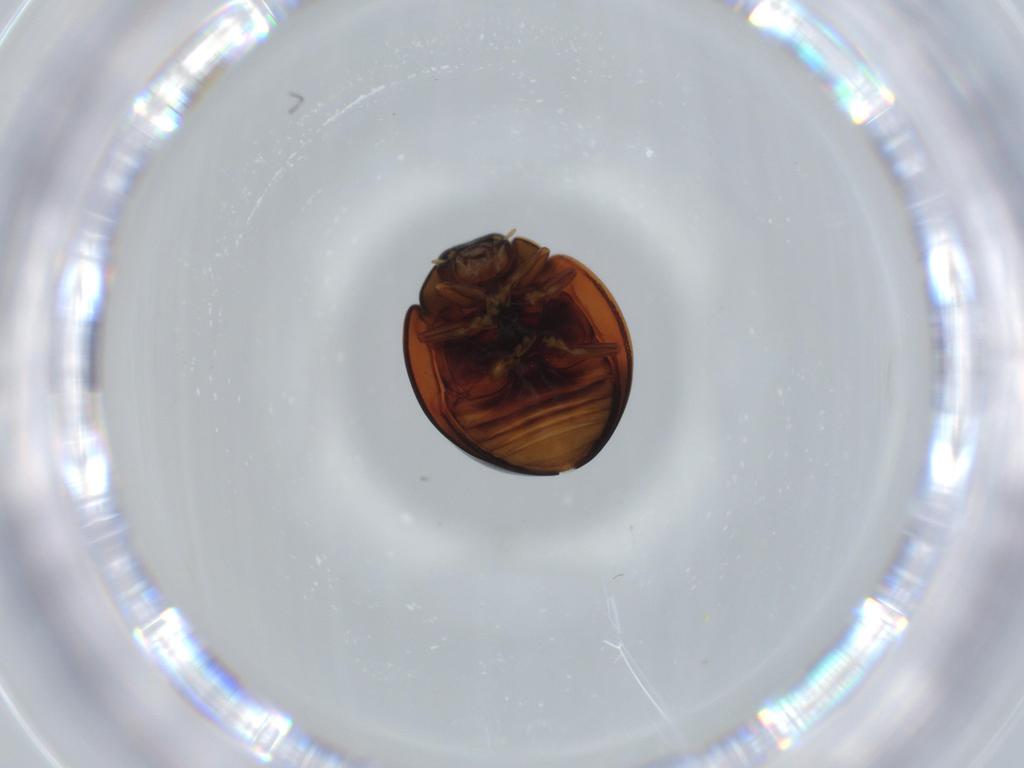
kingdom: Animalia
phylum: Arthropoda
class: Insecta
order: Coleoptera
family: Coccinellidae
